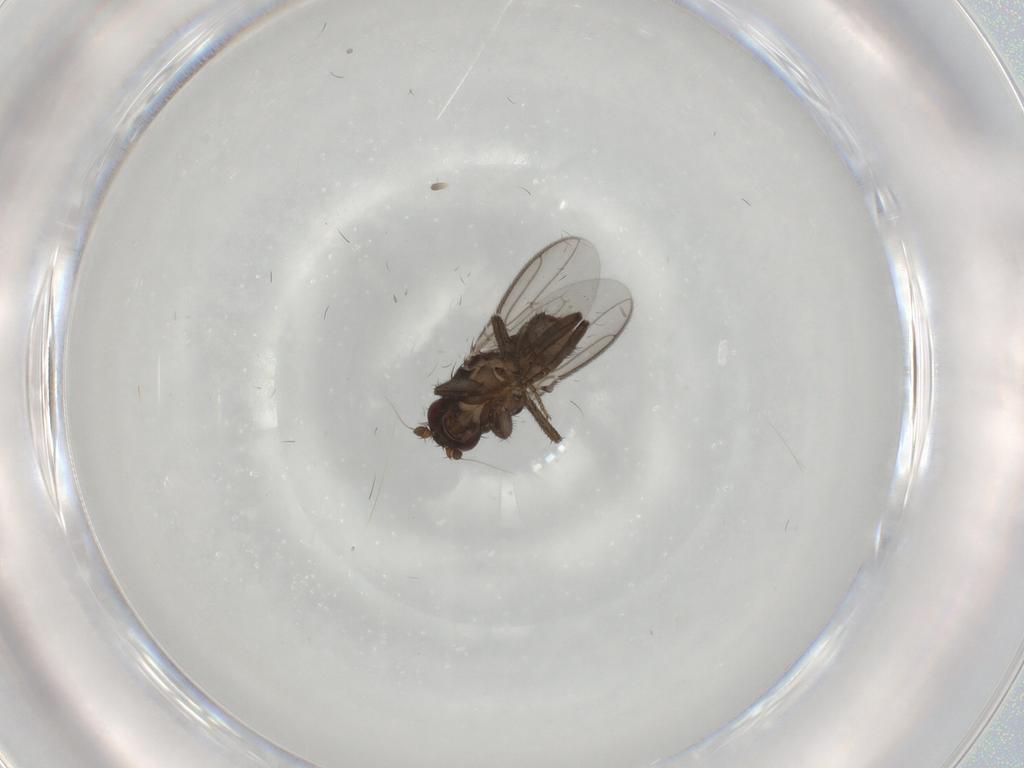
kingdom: Animalia
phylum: Arthropoda
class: Insecta
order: Diptera
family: Sphaeroceridae
